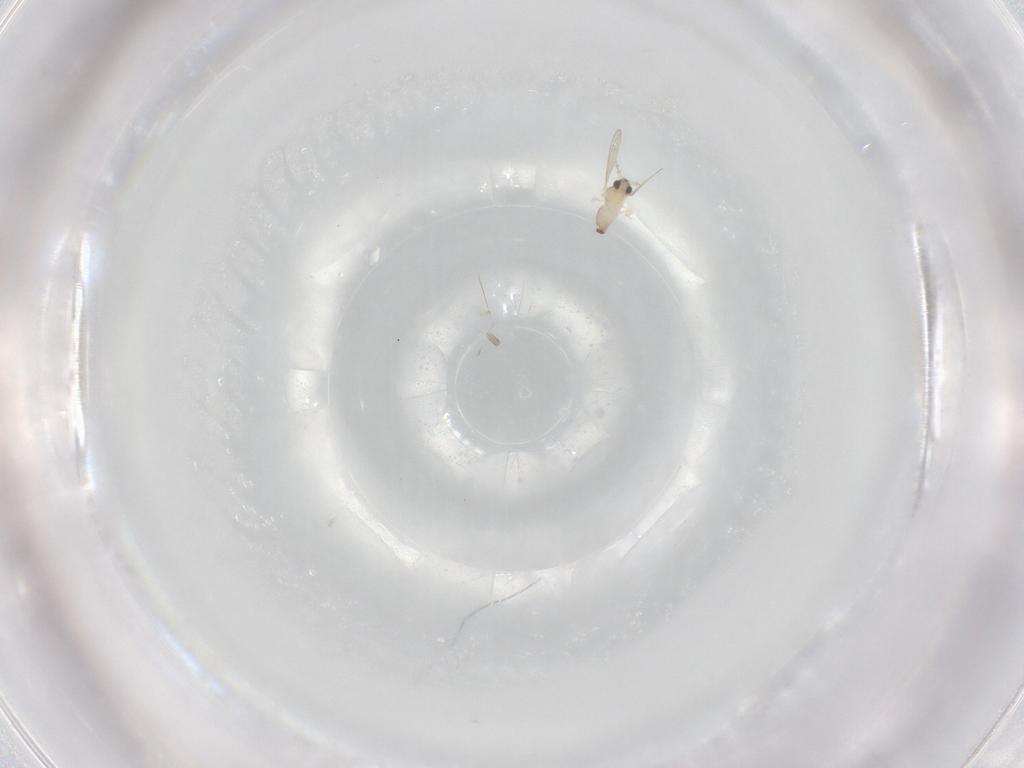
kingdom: Animalia
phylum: Arthropoda
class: Insecta
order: Diptera
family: Cecidomyiidae
